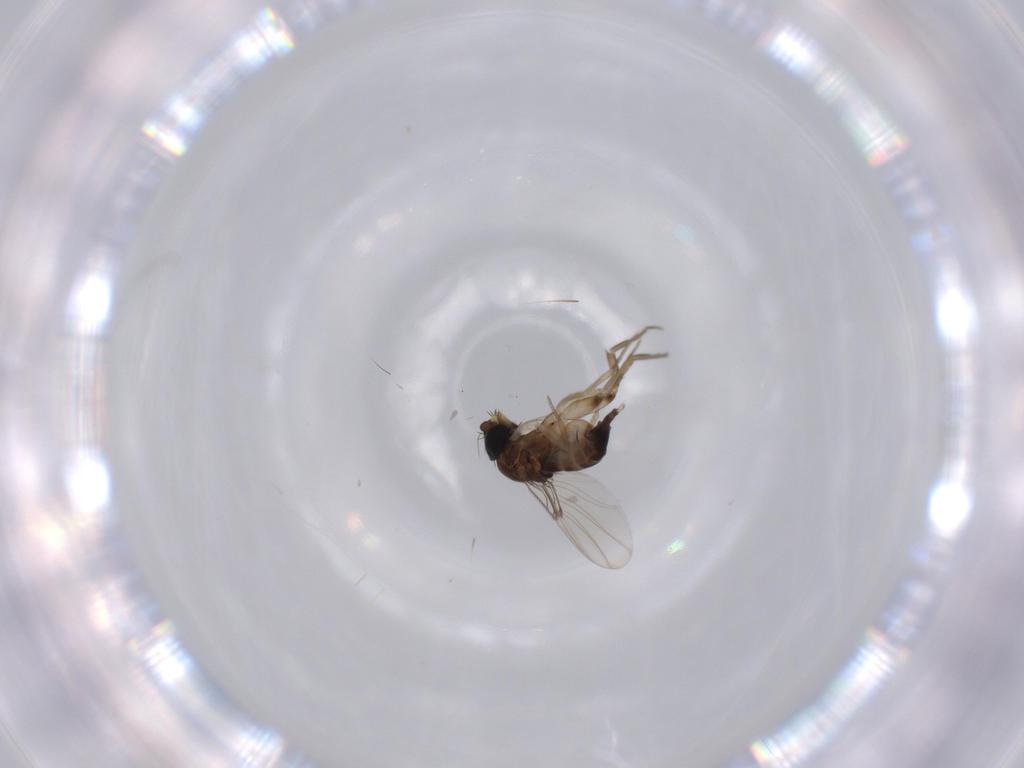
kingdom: Animalia
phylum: Arthropoda
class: Insecta
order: Diptera
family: Phoridae
